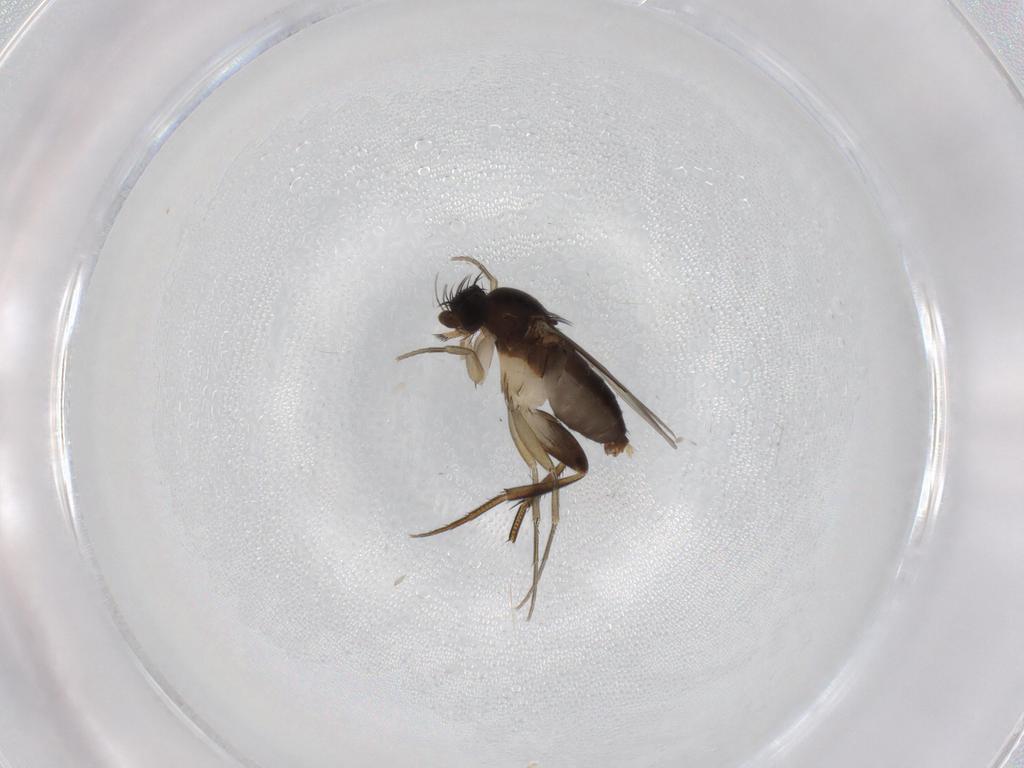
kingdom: Animalia
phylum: Arthropoda
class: Insecta
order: Diptera
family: Phoridae
